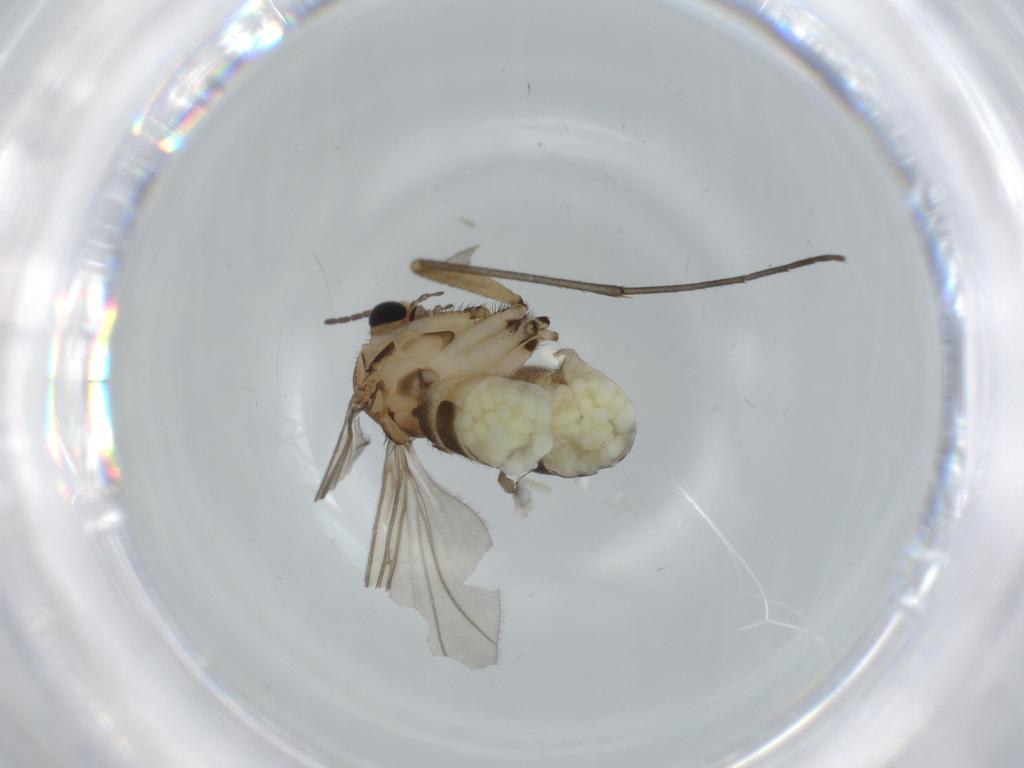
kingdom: Animalia
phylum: Arthropoda
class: Insecta
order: Diptera
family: Sciaridae
